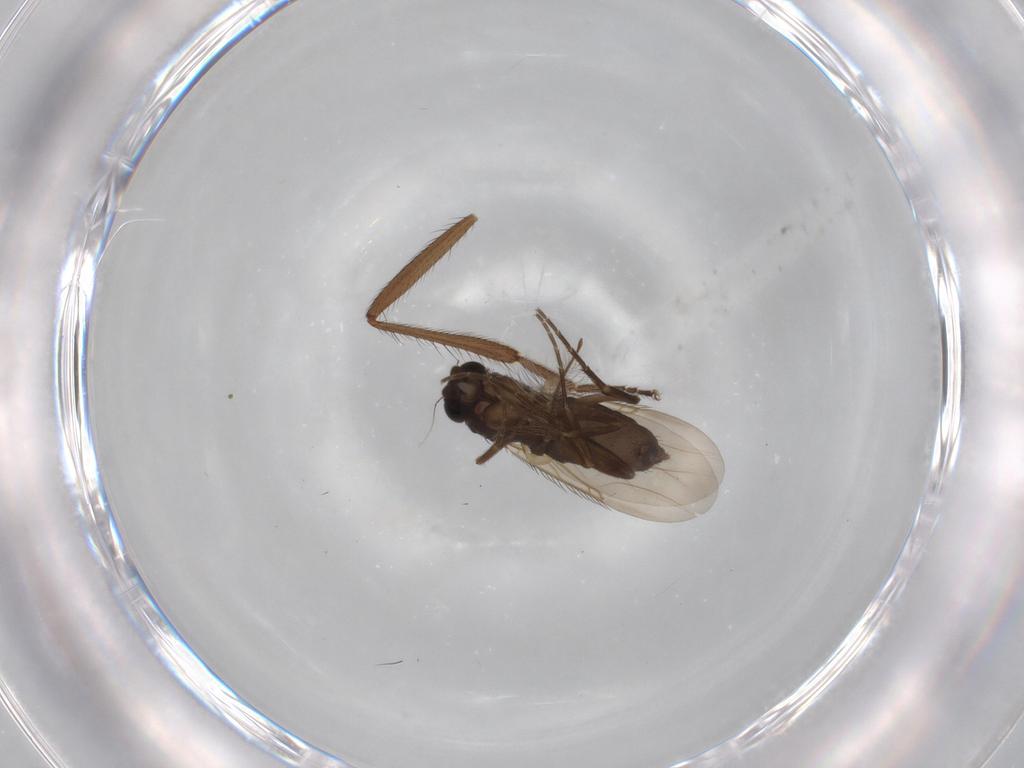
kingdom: Animalia
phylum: Arthropoda
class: Insecta
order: Diptera
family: Phoridae
